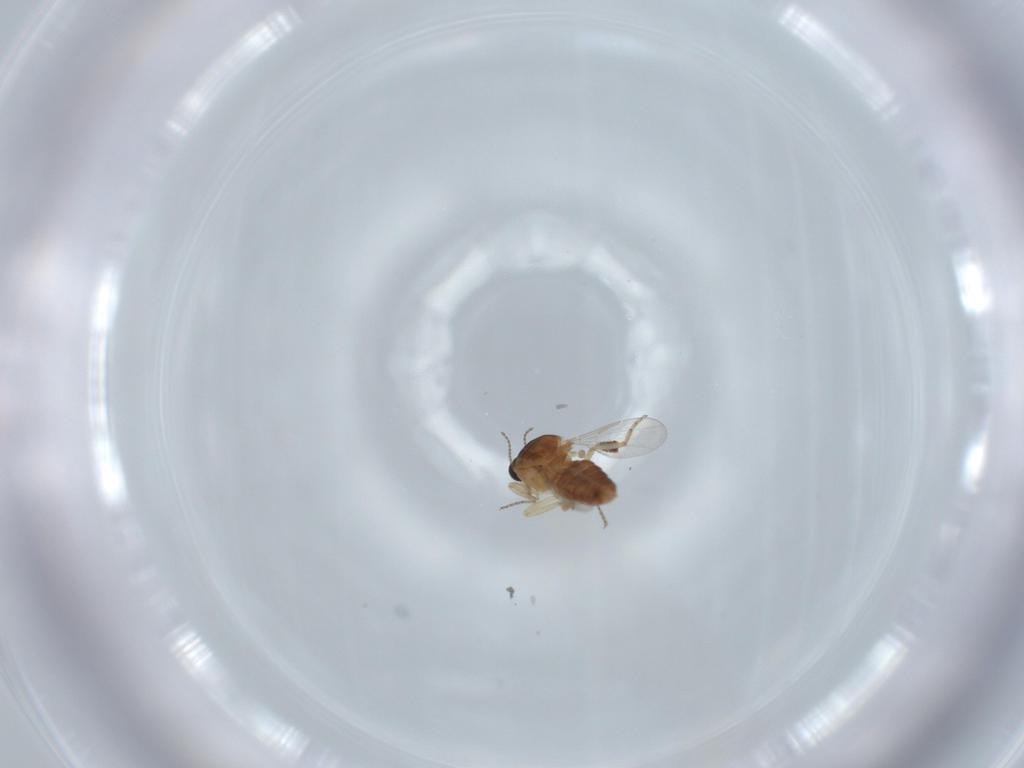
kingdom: Animalia
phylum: Arthropoda
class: Insecta
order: Diptera
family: Ceratopogonidae
